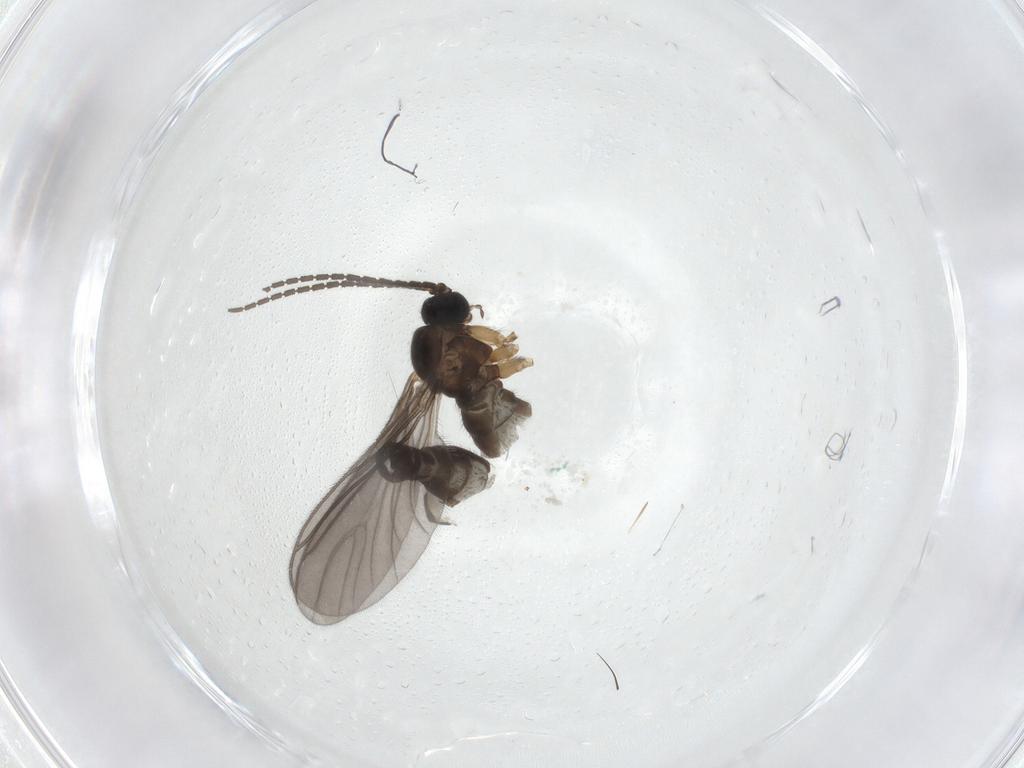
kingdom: Animalia
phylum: Arthropoda
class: Insecta
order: Diptera
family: Sciaridae
